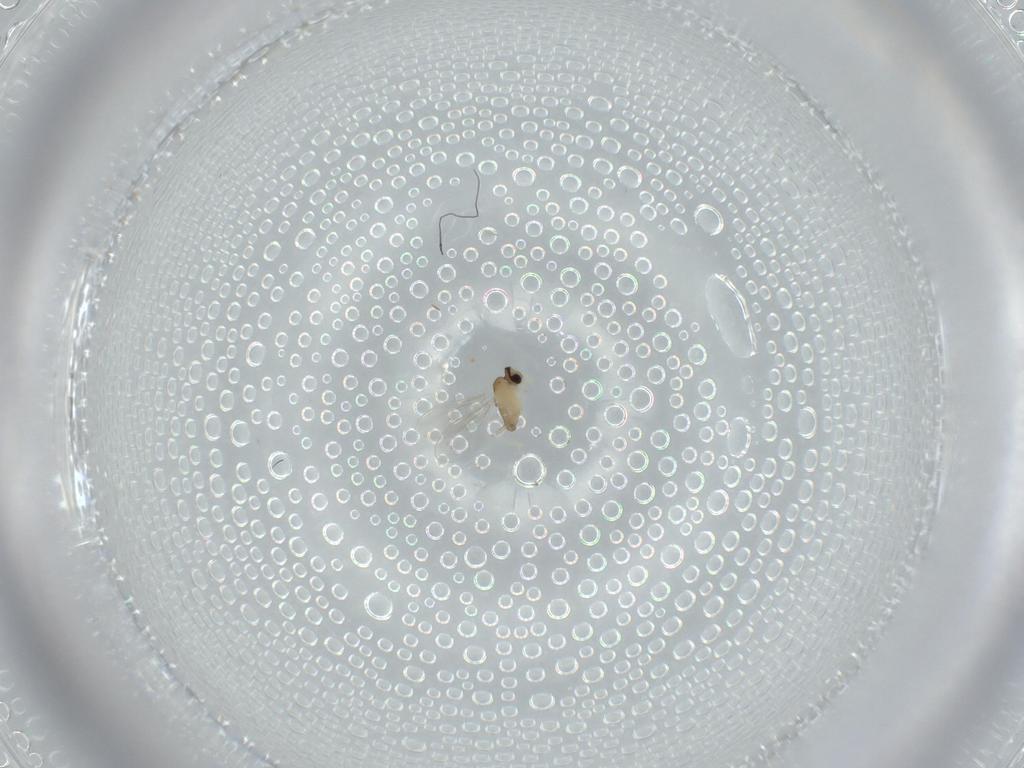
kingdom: Animalia
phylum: Arthropoda
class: Insecta
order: Diptera
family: Cecidomyiidae
